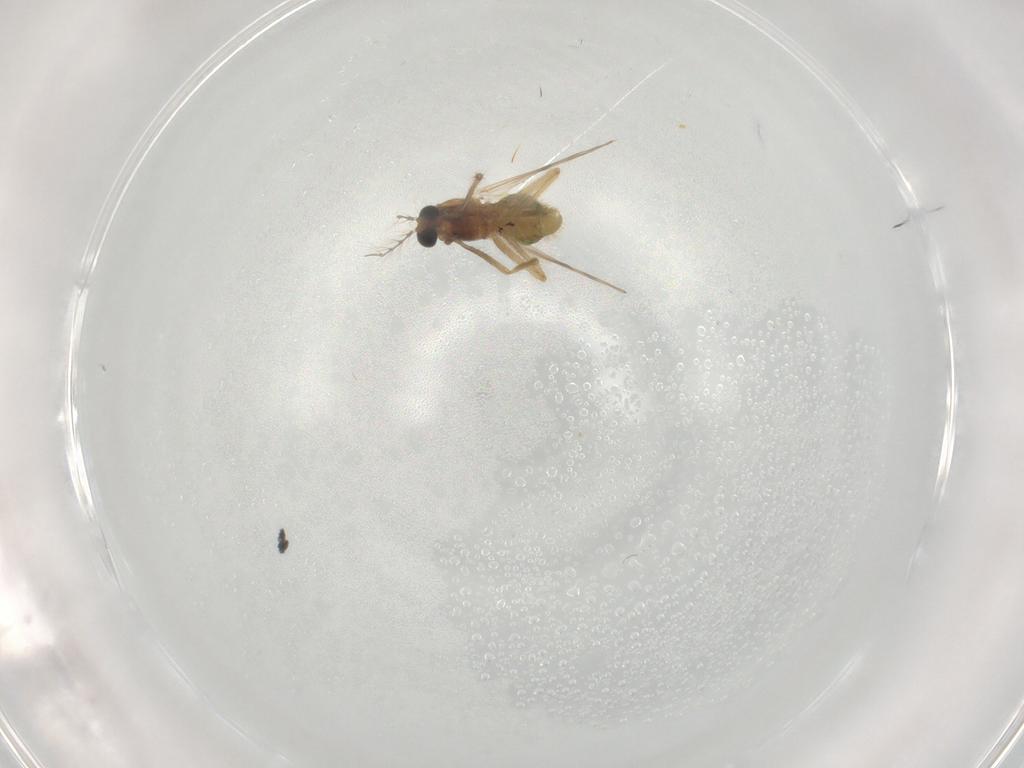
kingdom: Animalia
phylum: Arthropoda
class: Insecta
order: Diptera
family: Chironomidae
